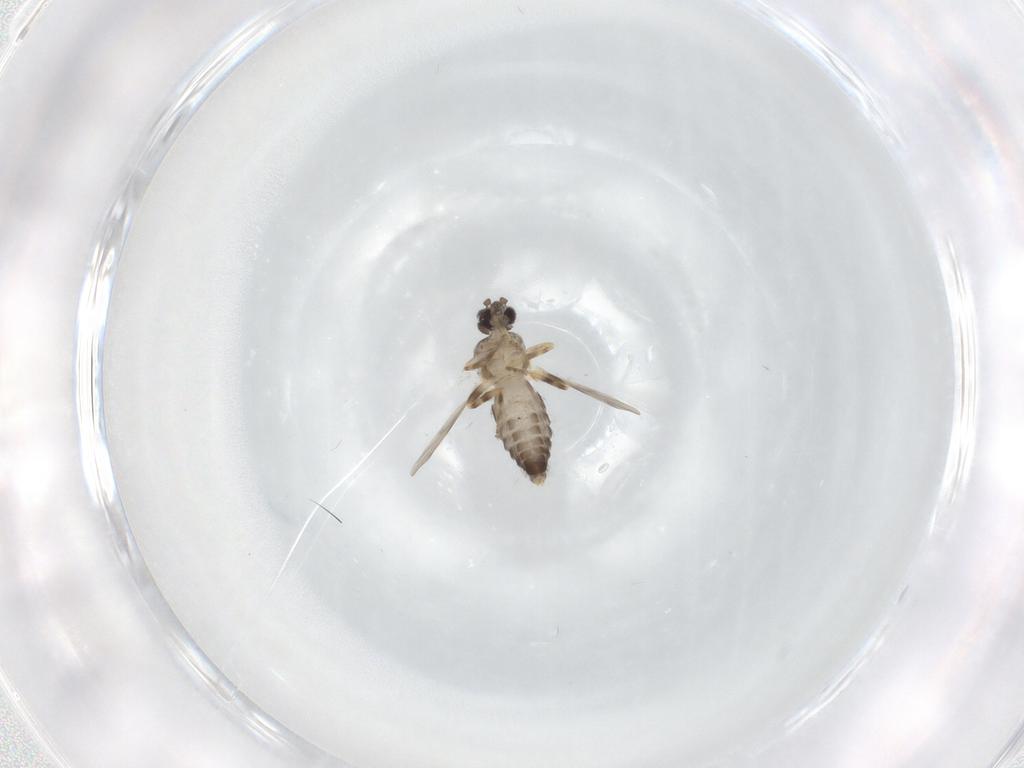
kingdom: Animalia
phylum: Arthropoda
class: Insecta
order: Diptera
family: Ceratopogonidae
